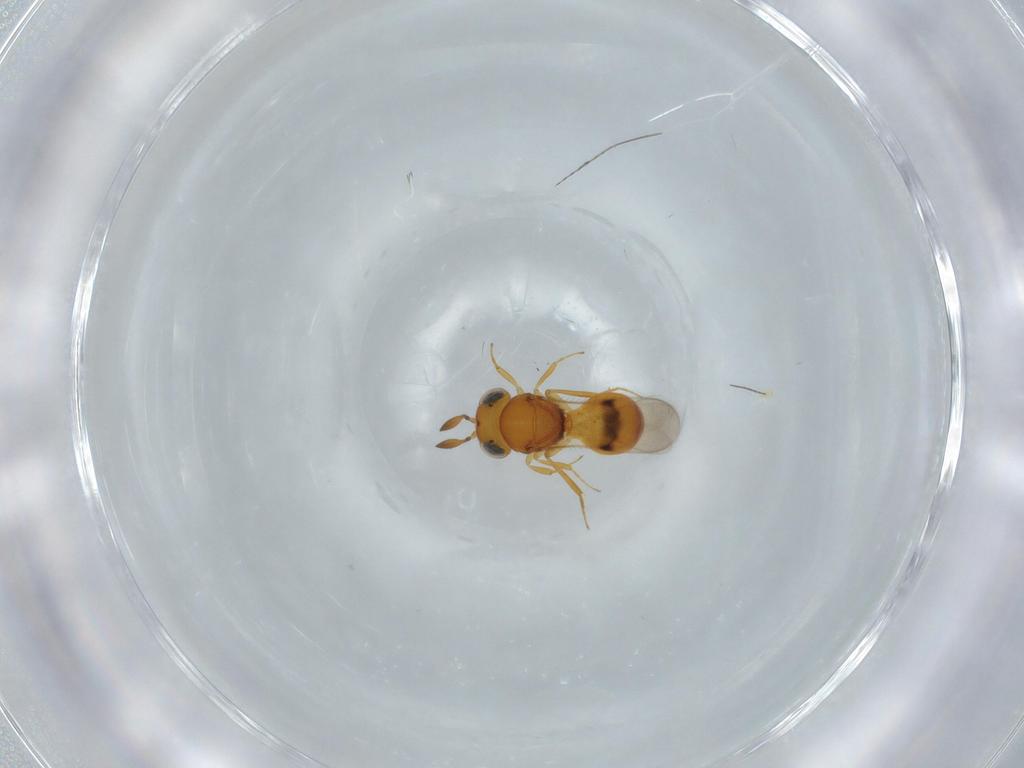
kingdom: Animalia
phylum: Arthropoda
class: Insecta
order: Hymenoptera
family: Scelionidae
